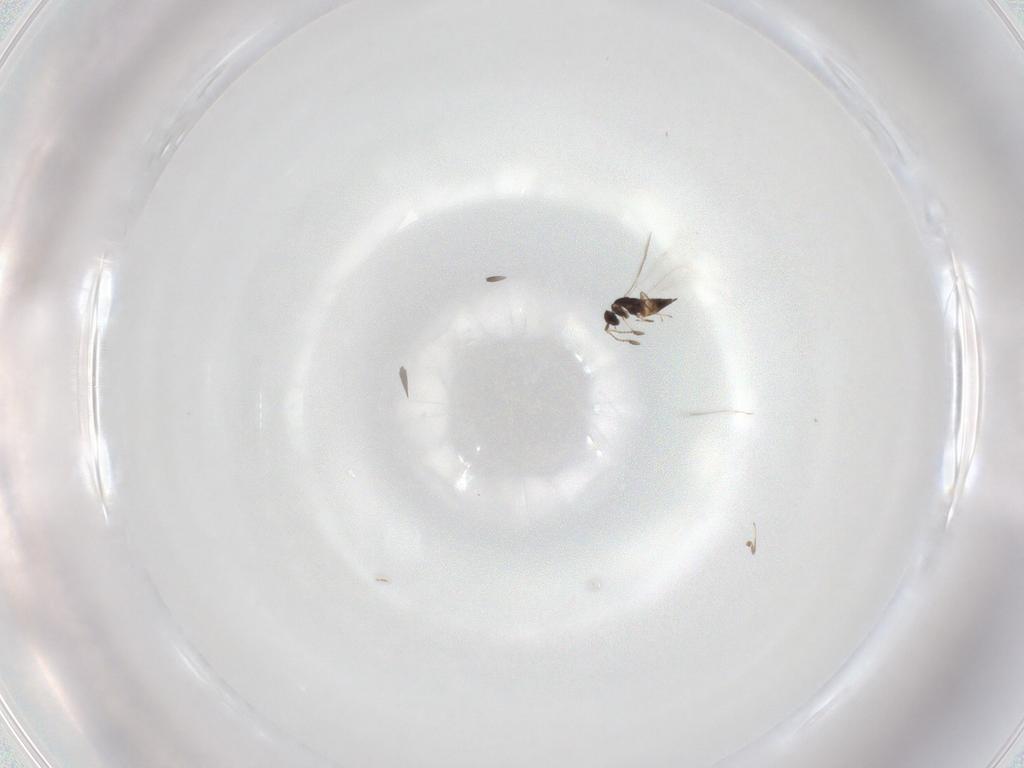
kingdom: Animalia
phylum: Arthropoda
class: Insecta
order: Hymenoptera
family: Mymaridae
